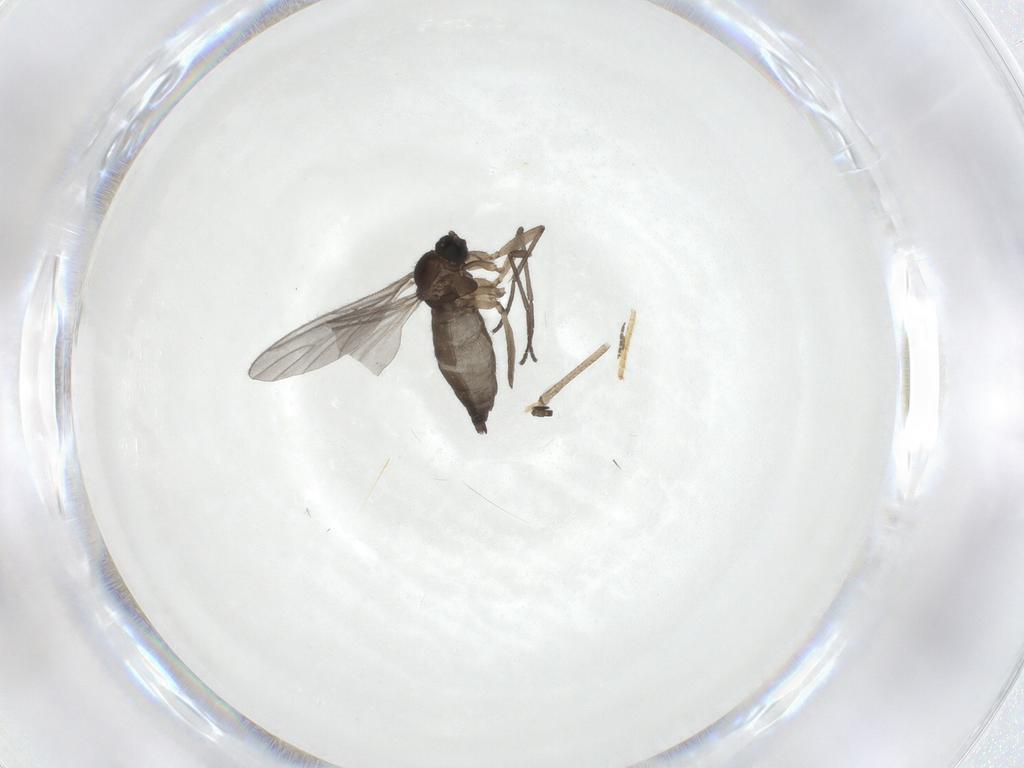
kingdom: Animalia
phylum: Arthropoda
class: Insecta
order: Diptera
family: Psychodidae
